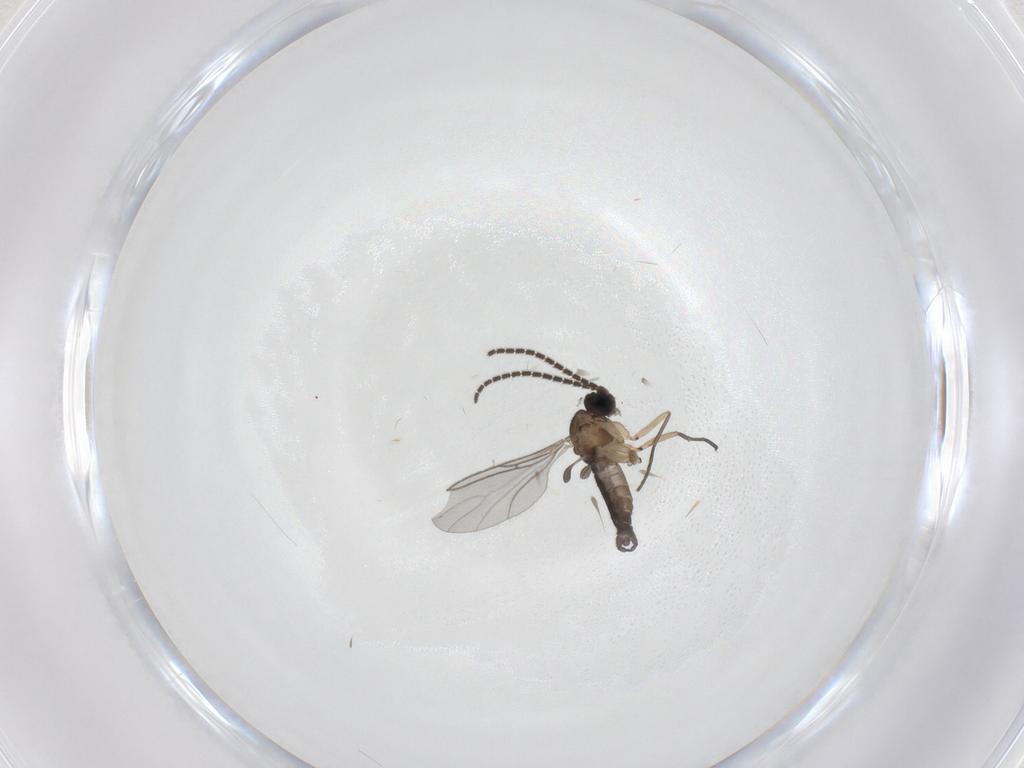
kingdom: Animalia
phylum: Arthropoda
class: Insecta
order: Diptera
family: Sciaridae
